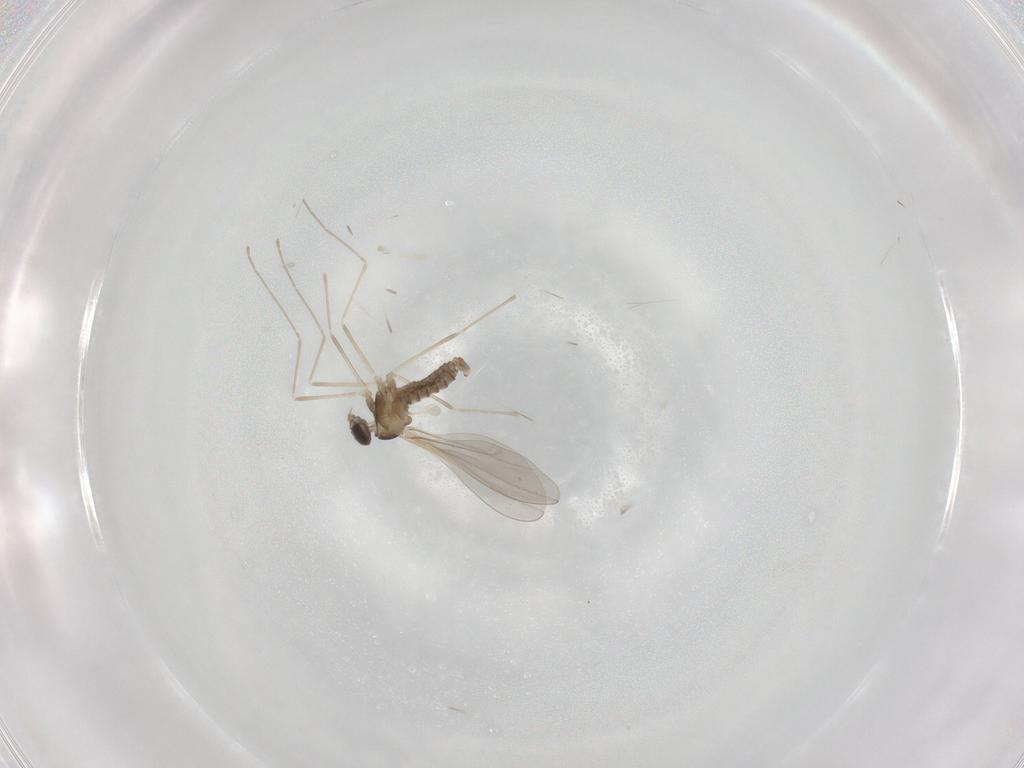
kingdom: Animalia
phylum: Arthropoda
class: Insecta
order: Diptera
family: Cecidomyiidae
